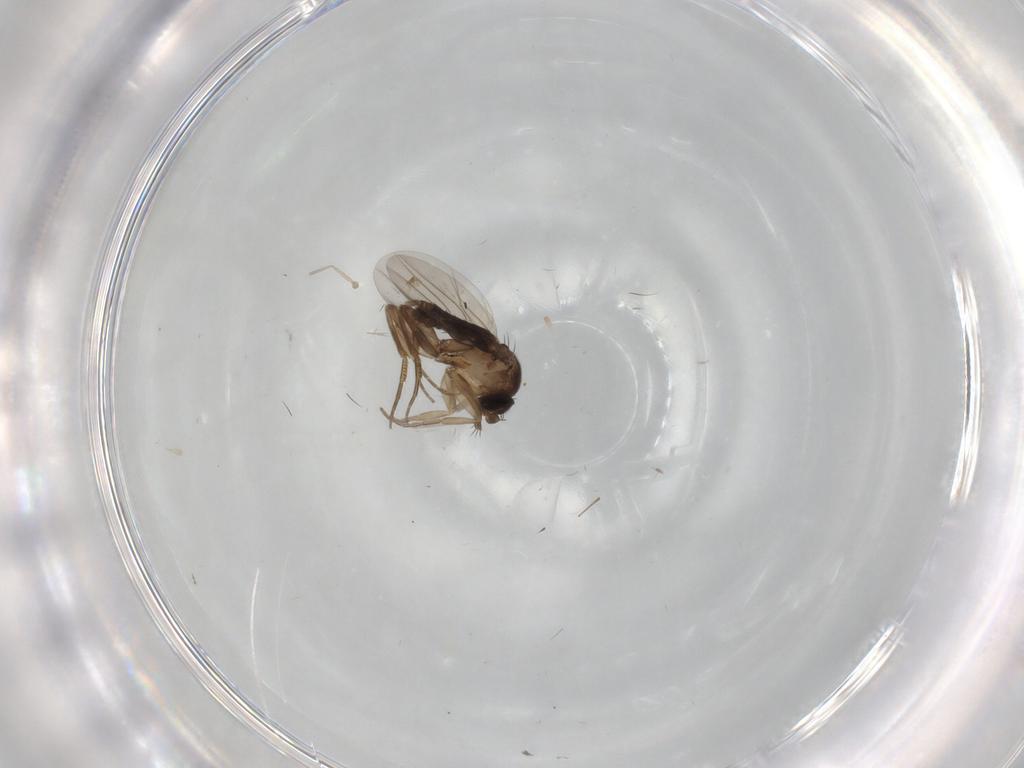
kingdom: Animalia
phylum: Arthropoda
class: Insecta
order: Diptera
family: Phoridae
